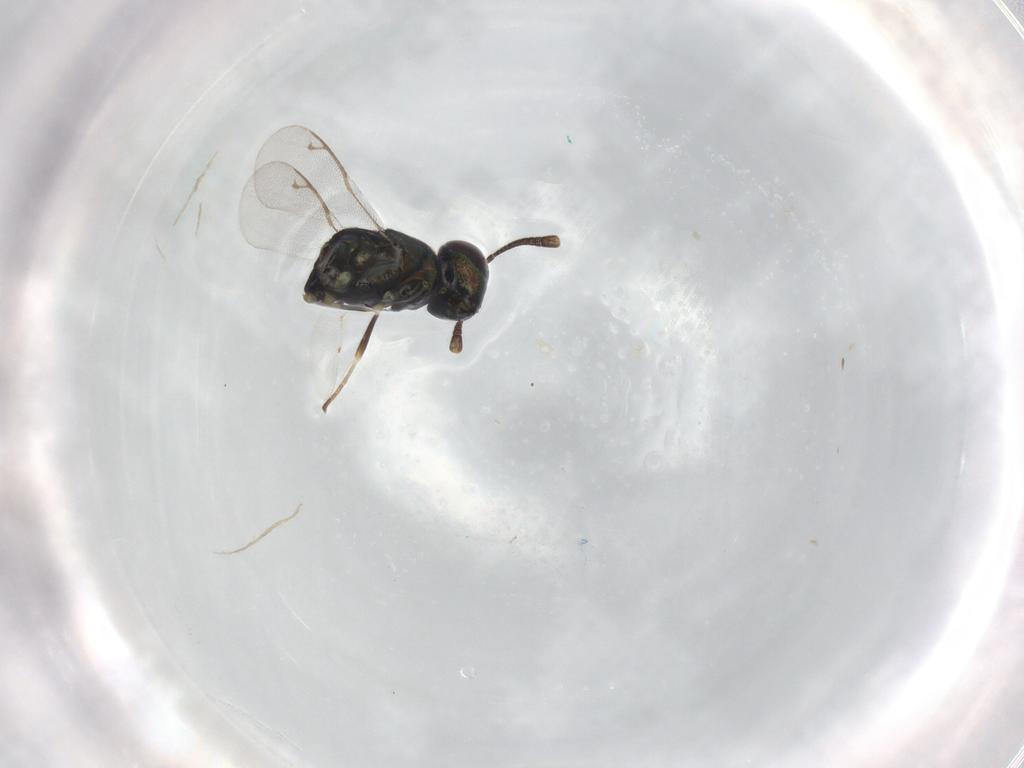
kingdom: Animalia
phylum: Arthropoda
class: Insecta
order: Hymenoptera
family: Eupelmidae
